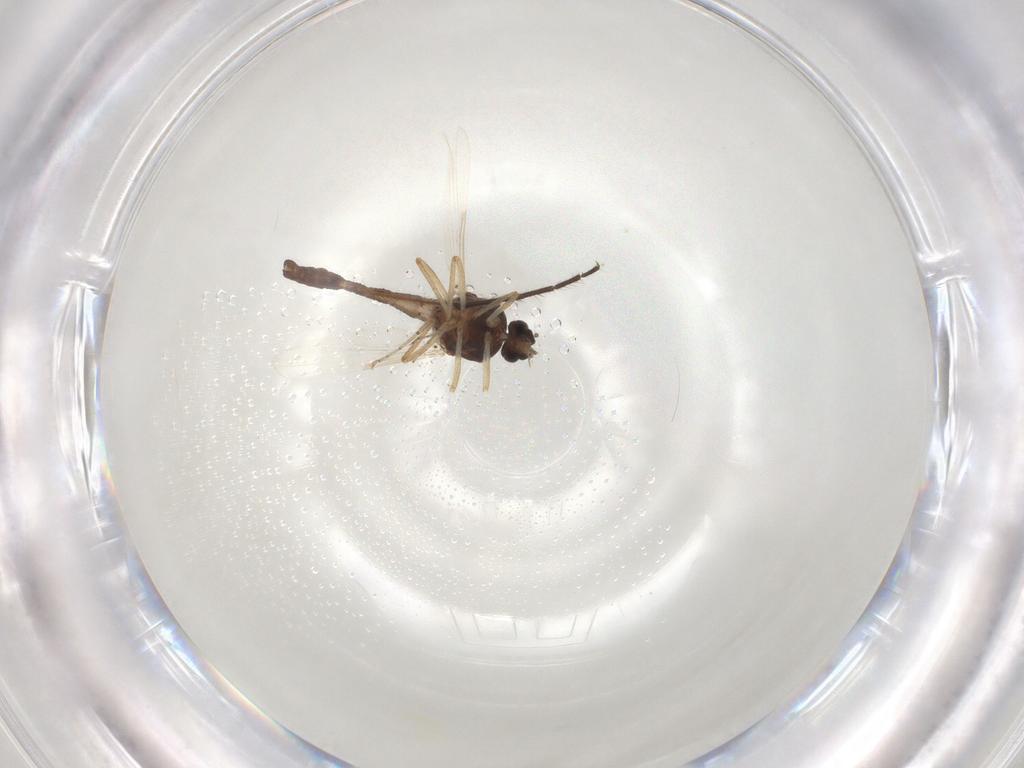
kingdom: Animalia
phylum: Arthropoda
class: Insecta
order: Diptera
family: Ceratopogonidae
